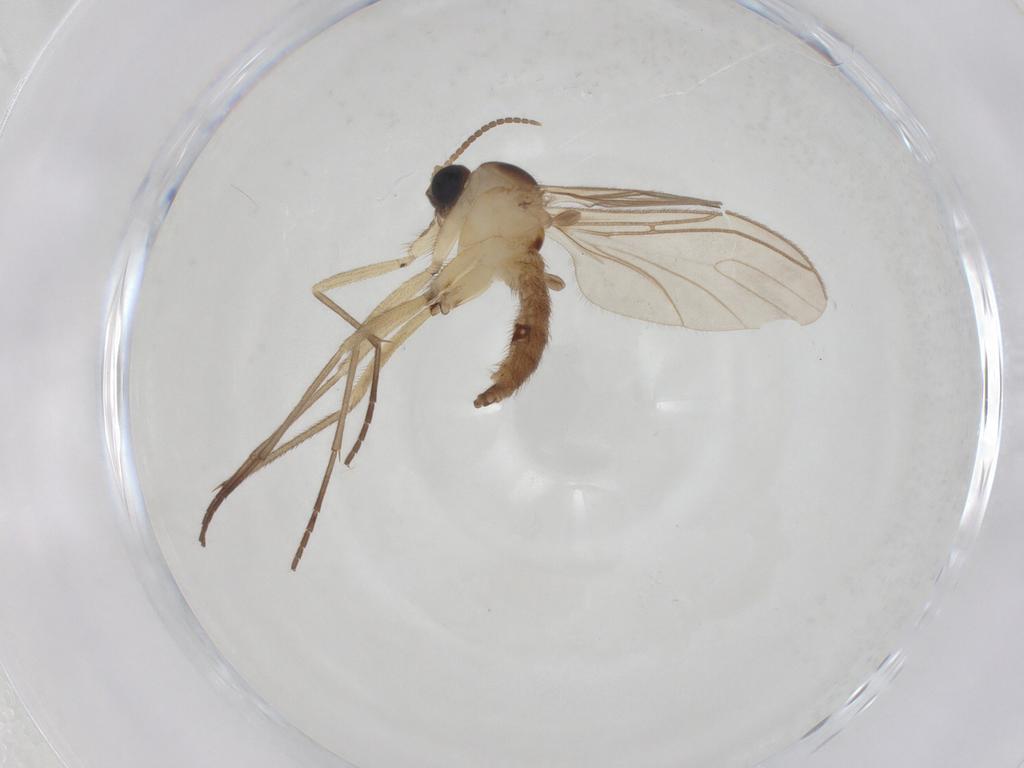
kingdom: Animalia
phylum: Arthropoda
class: Insecta
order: Diptera
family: Sciaridae
